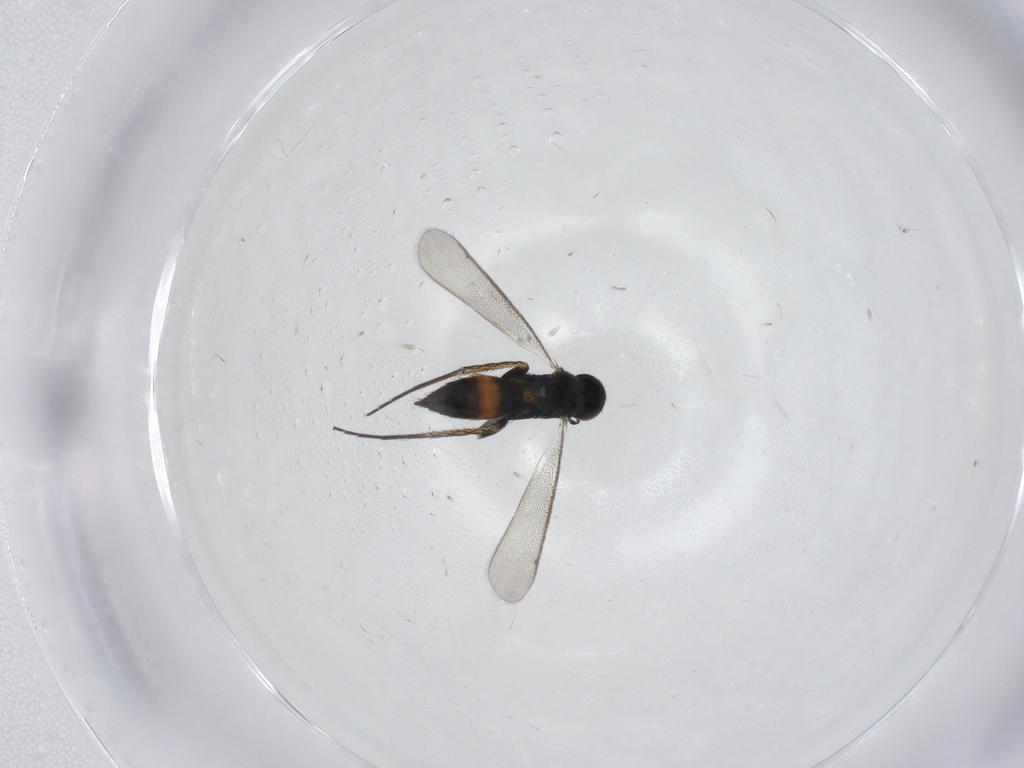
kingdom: Animalia
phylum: Arthropoda
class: Insecta
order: Hymenoptera
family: Eulophidae
